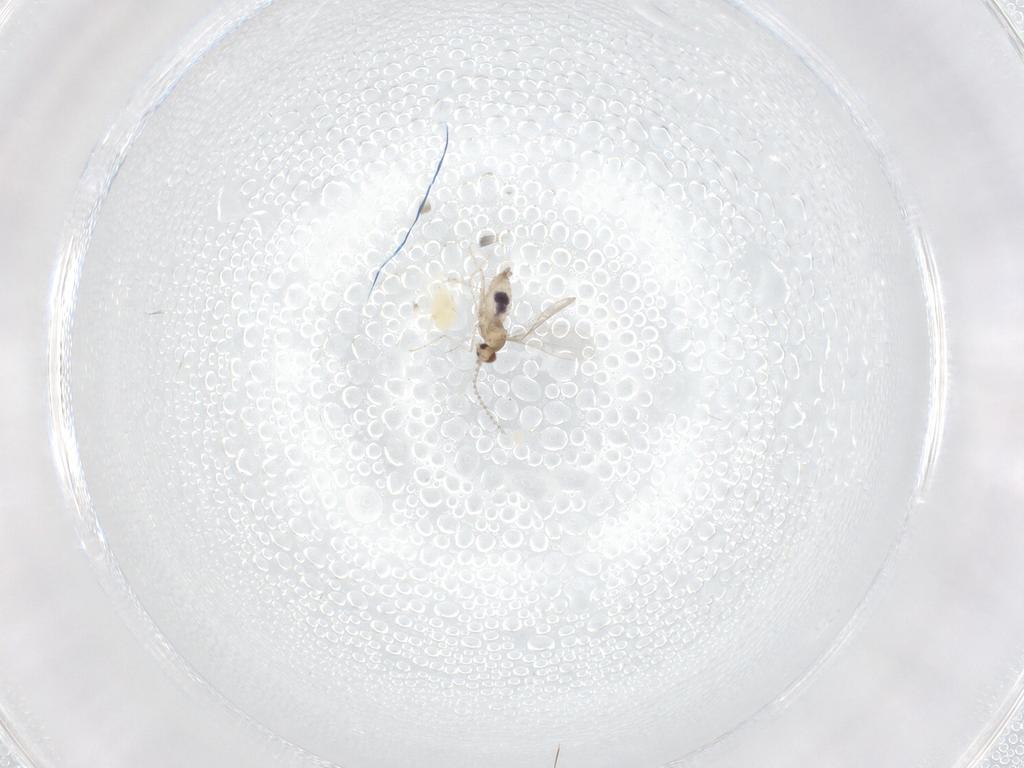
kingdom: Animalia
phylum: Arthropoda
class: Insecta
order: Diptera
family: Cecidomyiidae
